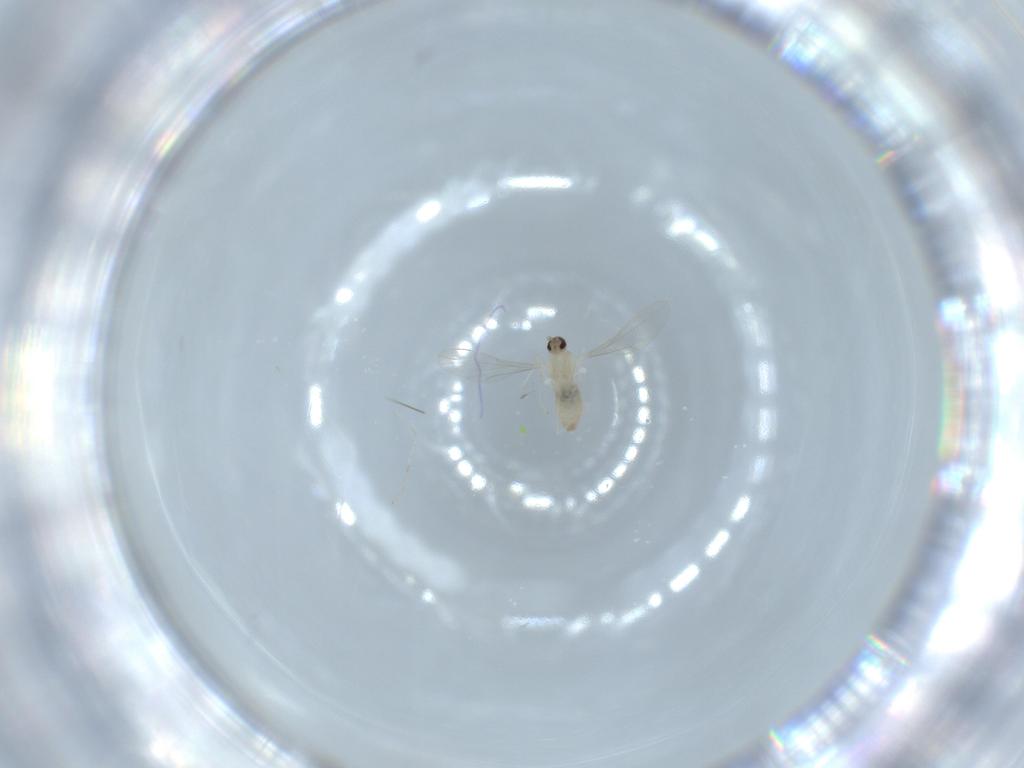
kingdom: Animalia
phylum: Arthropoda
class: Insecta
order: Diptera
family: Cecidomyiidae
